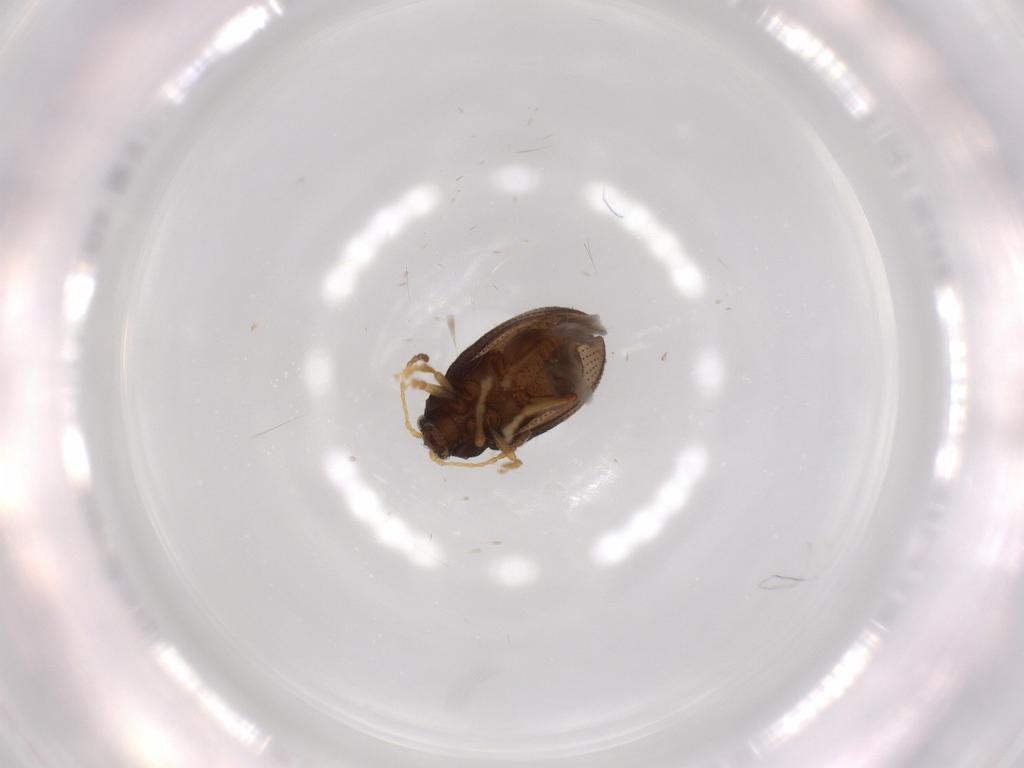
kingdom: Animalia
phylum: Arthropoda
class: Insecta
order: Coleoptera
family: Chrysomelidae
